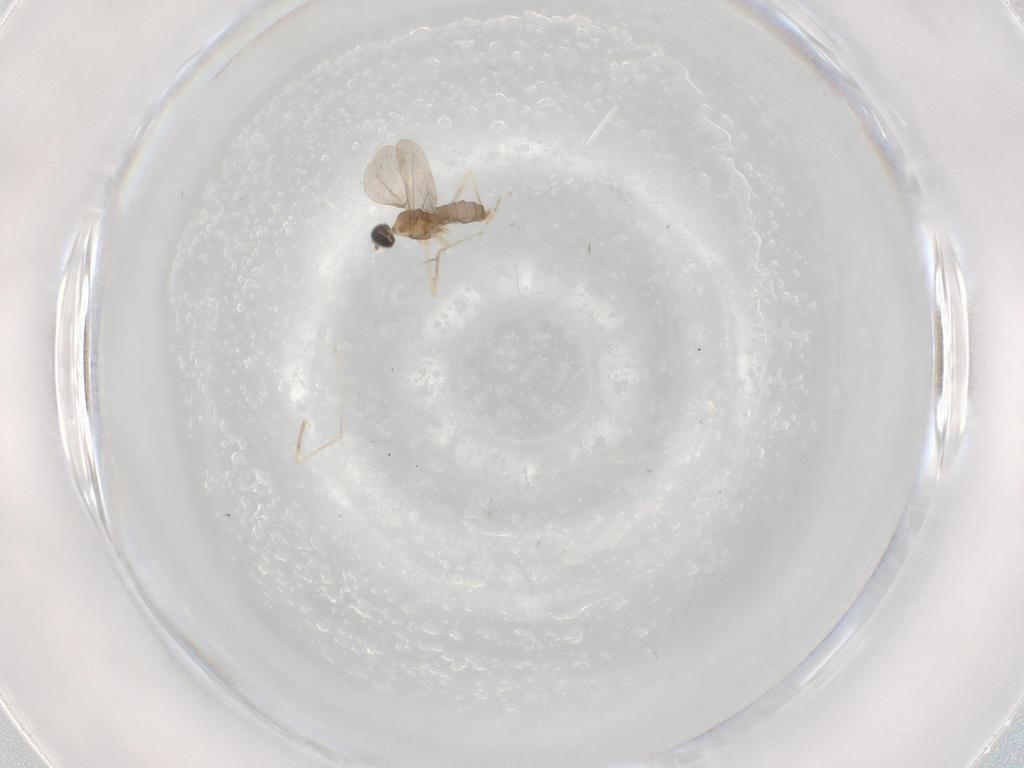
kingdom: Animalia
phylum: Arthropoda
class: Insecta
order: Diptera
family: Cecidomyiidae
